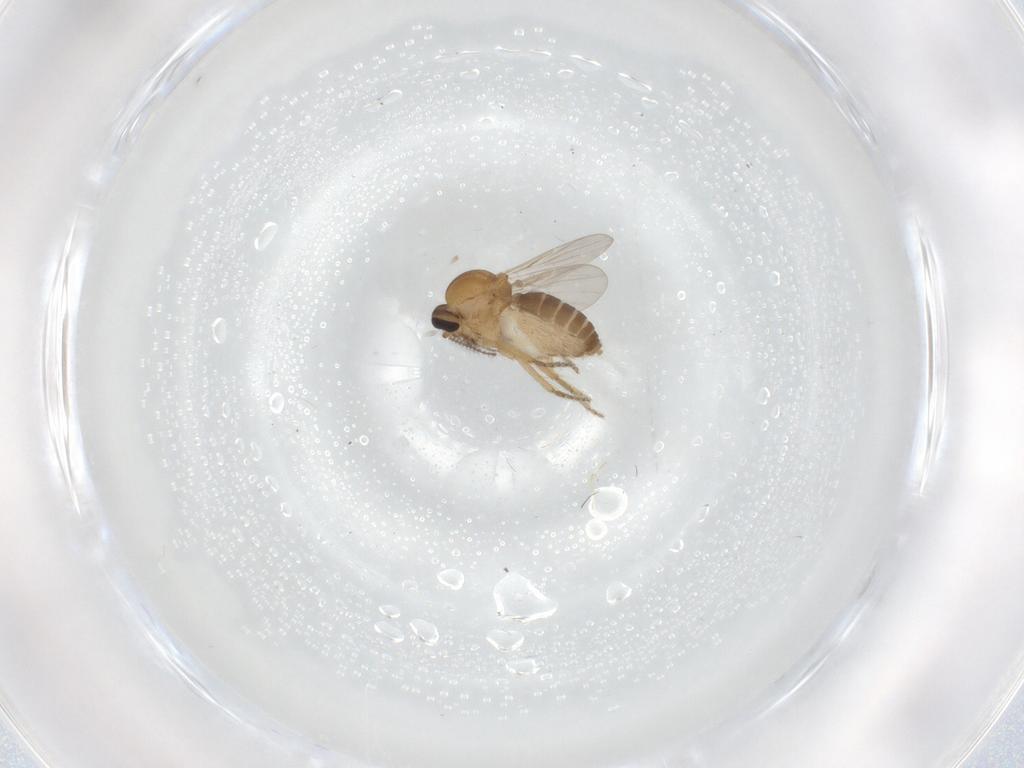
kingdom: Animalia
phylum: Arthropoda
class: Insecta
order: Diptera
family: Ceratopogonidae
